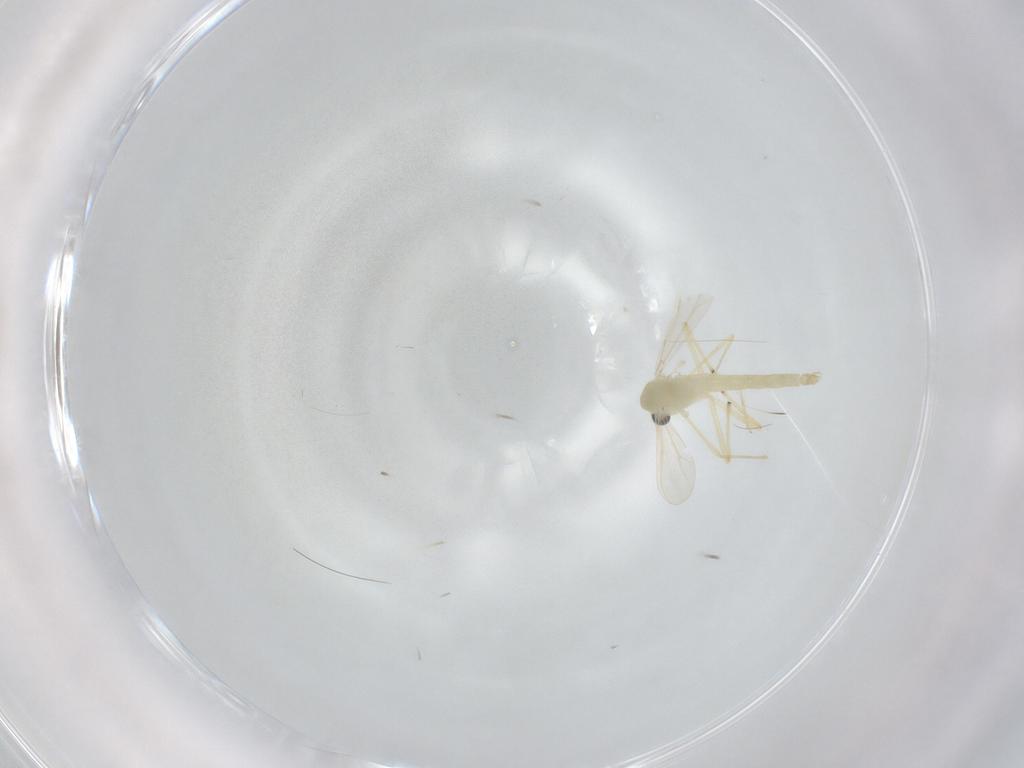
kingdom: Animalia
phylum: Arthropoda
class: Insecta
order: Diptera
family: Chironomidae
